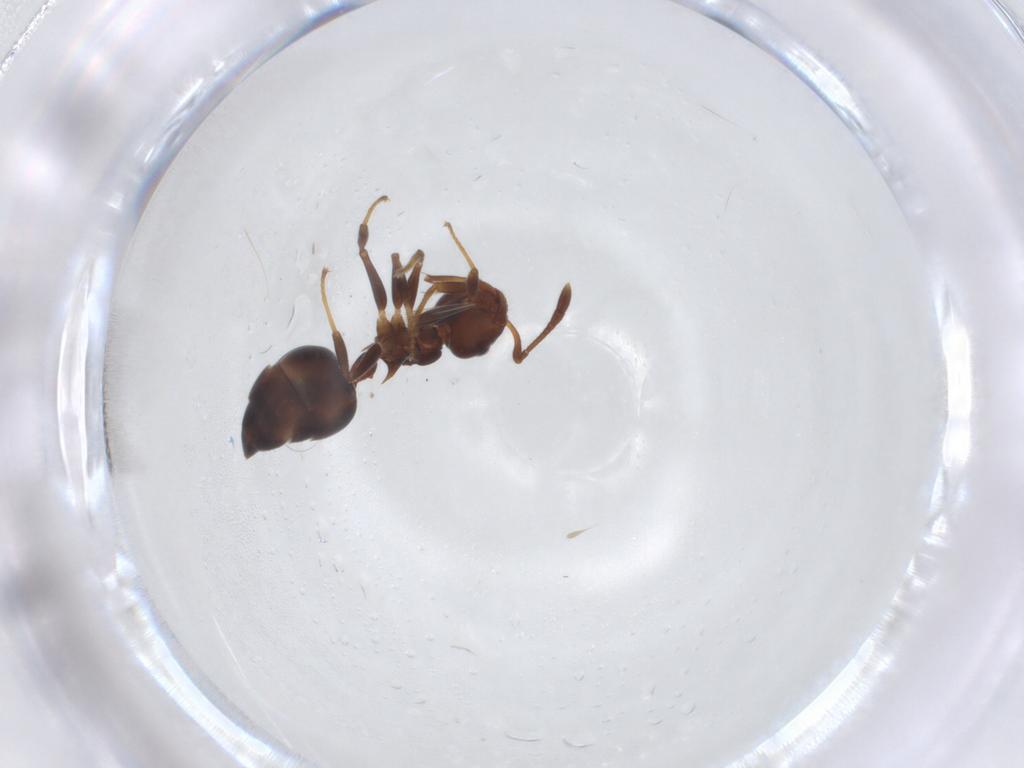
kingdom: Animalia
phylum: Arthropoda
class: Insecta
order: Hymenoptera
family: Formicidae
